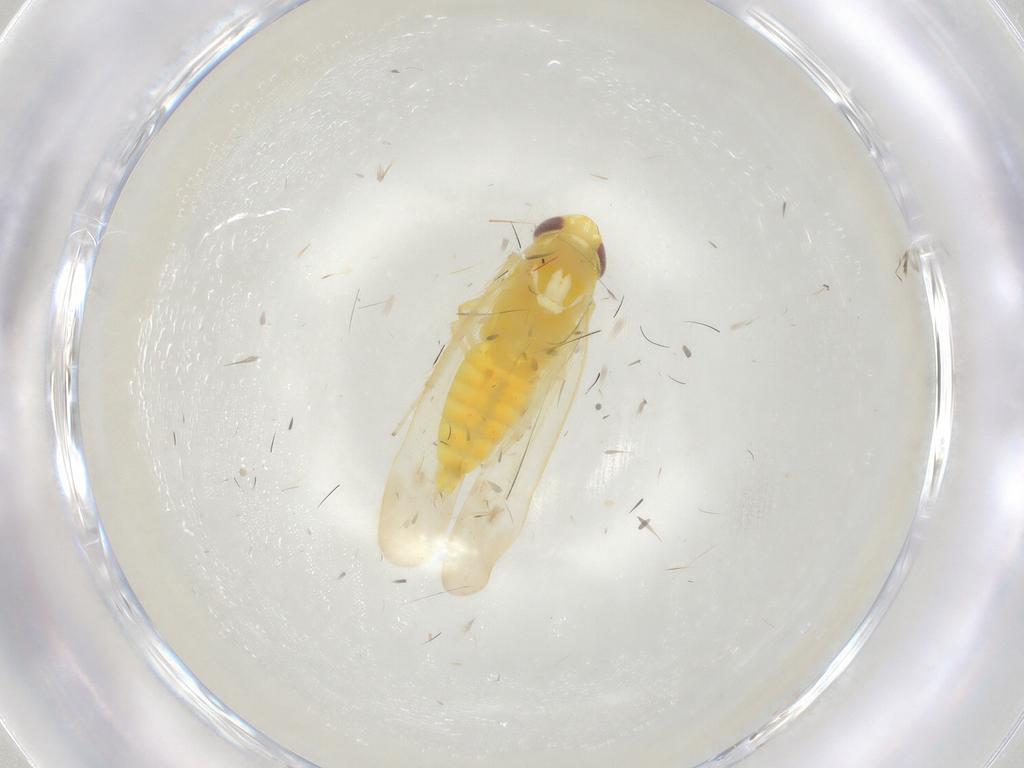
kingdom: Animalia
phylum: Arthropoda
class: Insecta
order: Hemiptera
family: Cicadellidae
